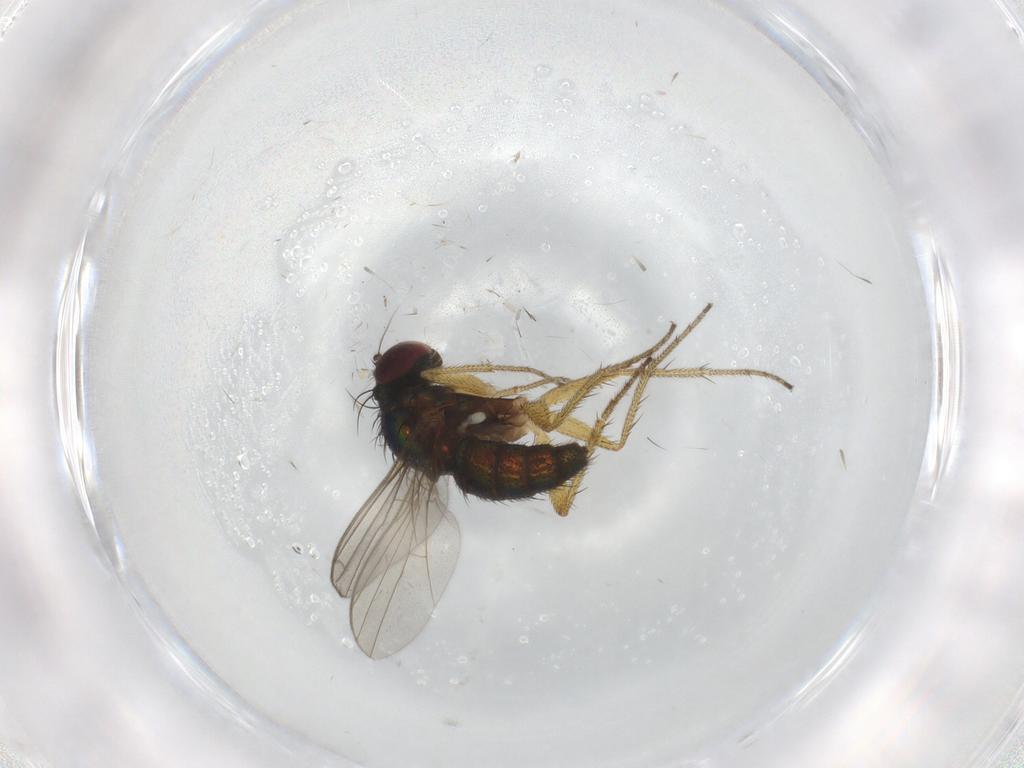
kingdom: Animalia
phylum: Arthropoda
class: Insecta
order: Diptera
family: Dolichopodidae
